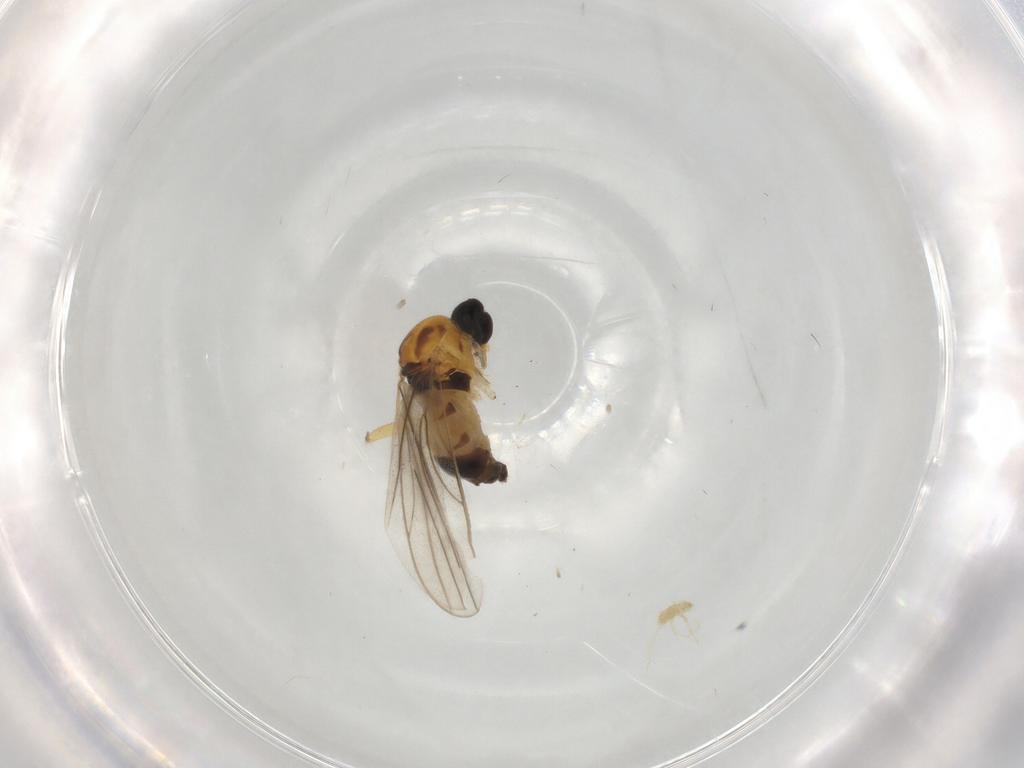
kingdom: Animalia
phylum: Arthropoda
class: Insecta
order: Diptera
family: Hybotidae
